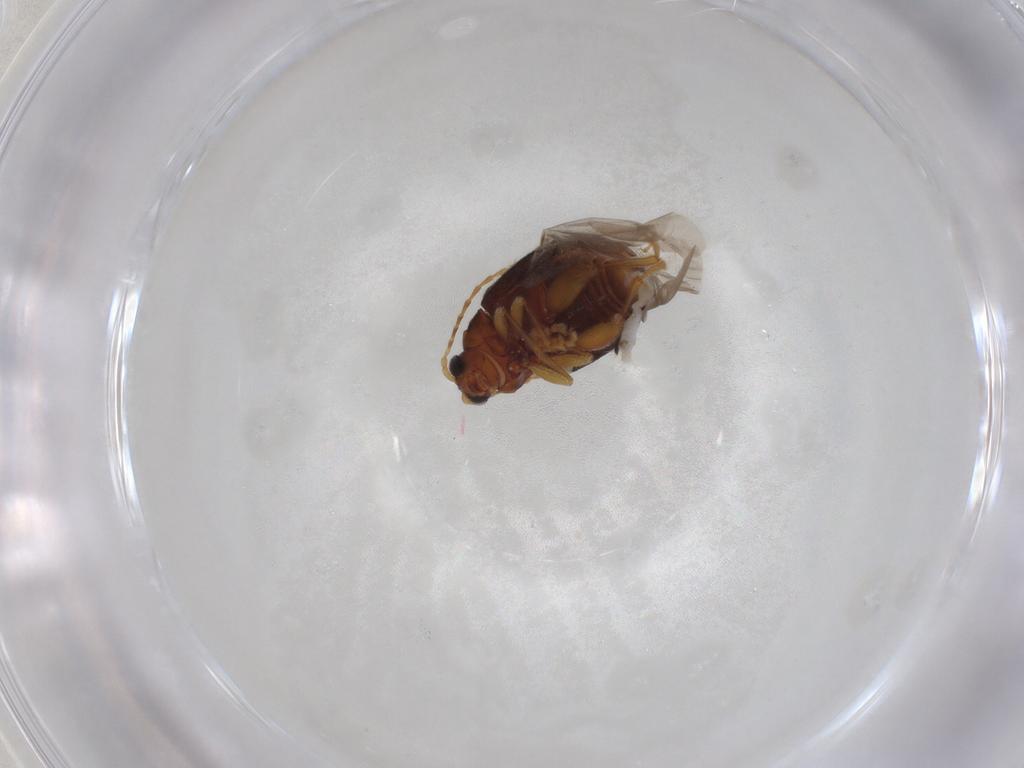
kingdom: Animalia
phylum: Arthropoda
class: Insecta
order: Coleoptera
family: Chrysomelidae
